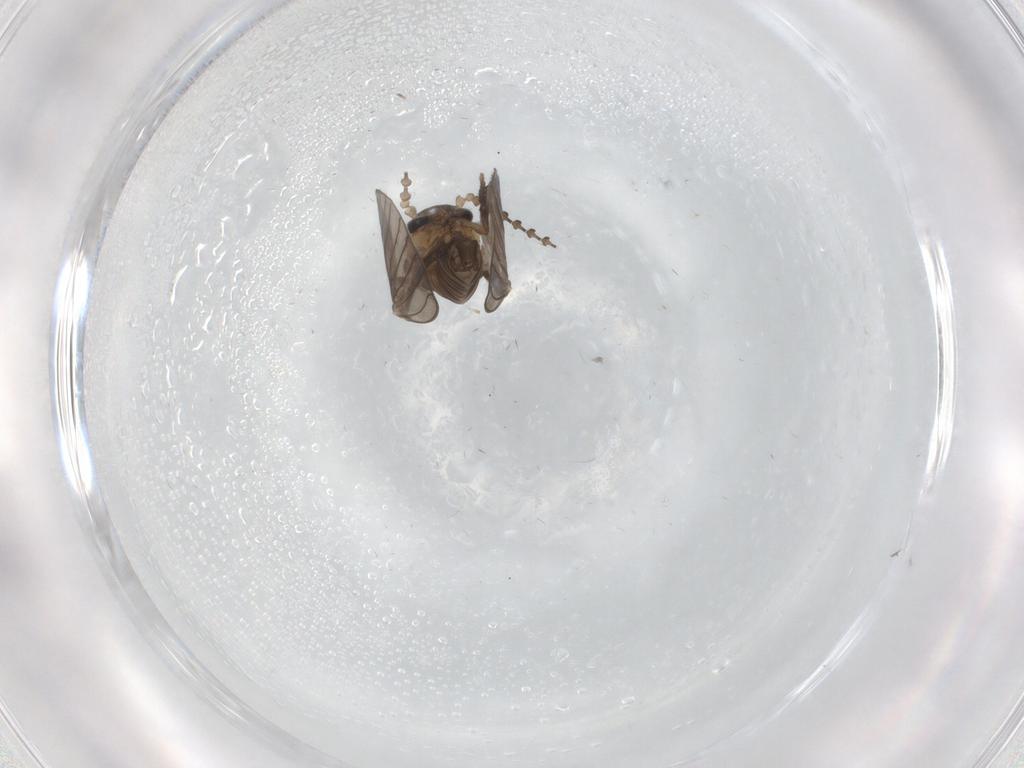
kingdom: Animalia
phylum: Arthropoda
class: Insecta
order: Diptera
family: Psychodidae
